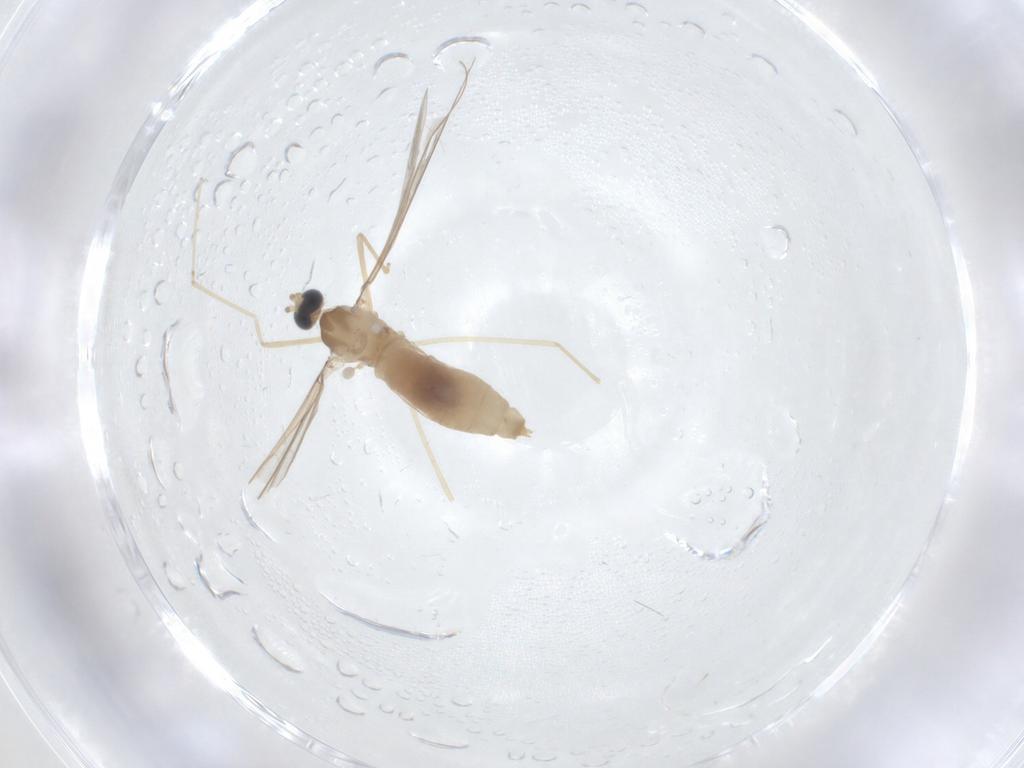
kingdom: Animalia
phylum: Arthropoda
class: Insecta
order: Diptera
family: Cecidomyiidae
